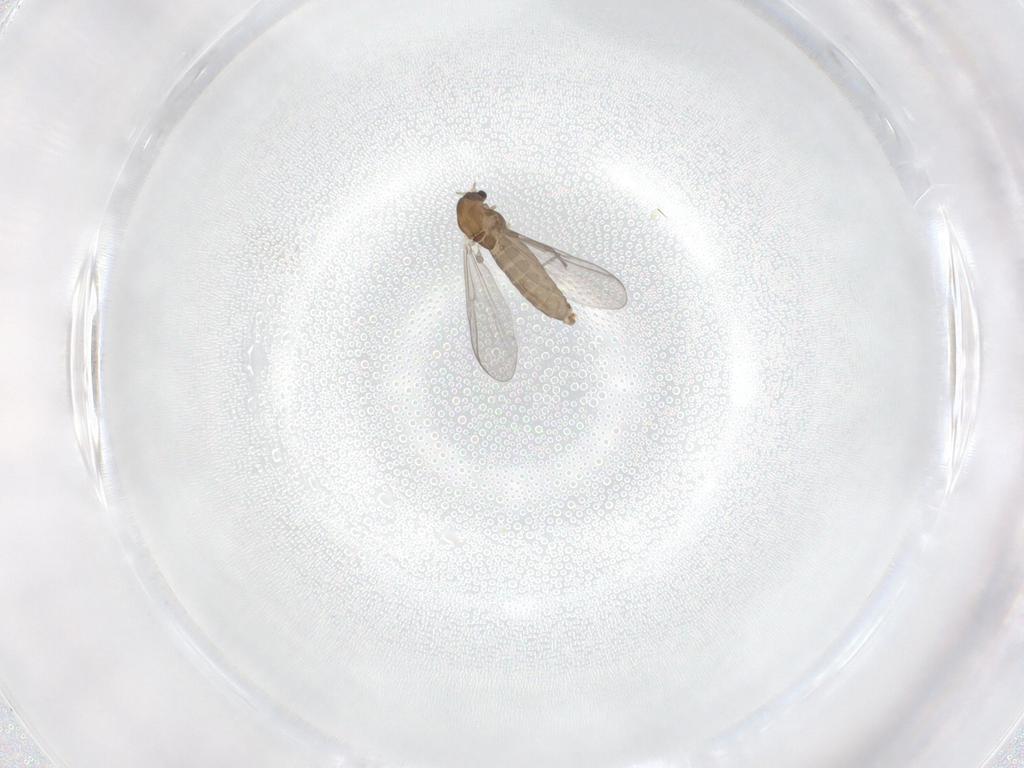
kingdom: Animalia
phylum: Arthropoda
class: Insecta
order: Diptera
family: Chironomidae
